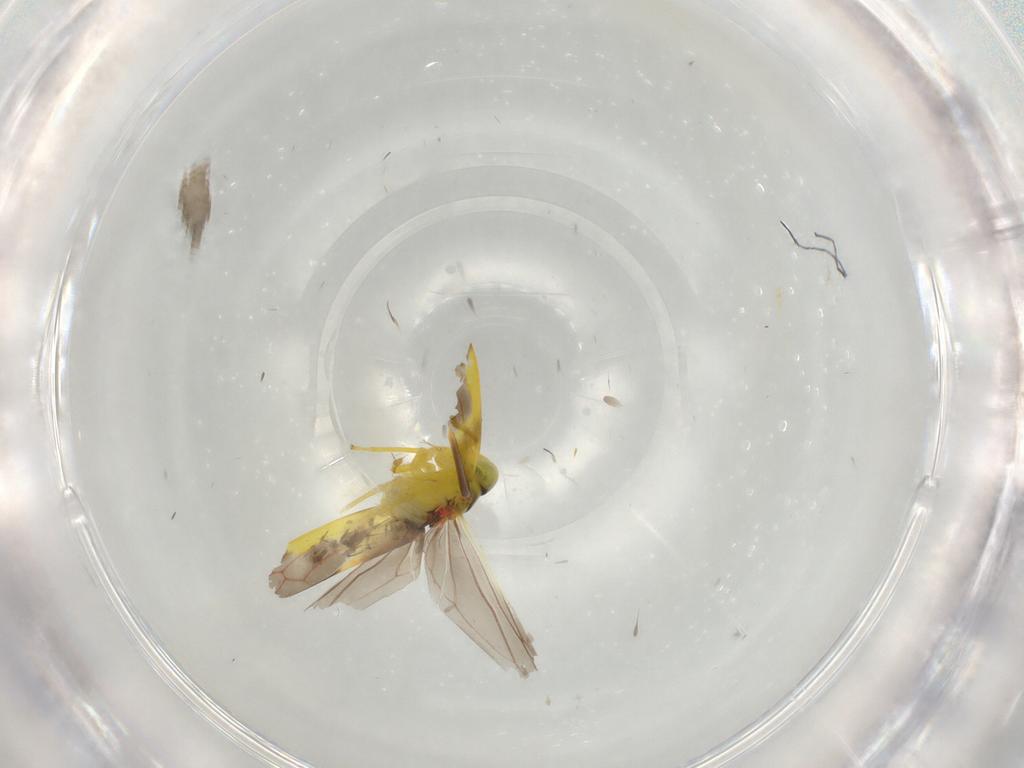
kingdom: Animalia
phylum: Arthropoda
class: Insecta
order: Hemiptera
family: Cicadellidae
